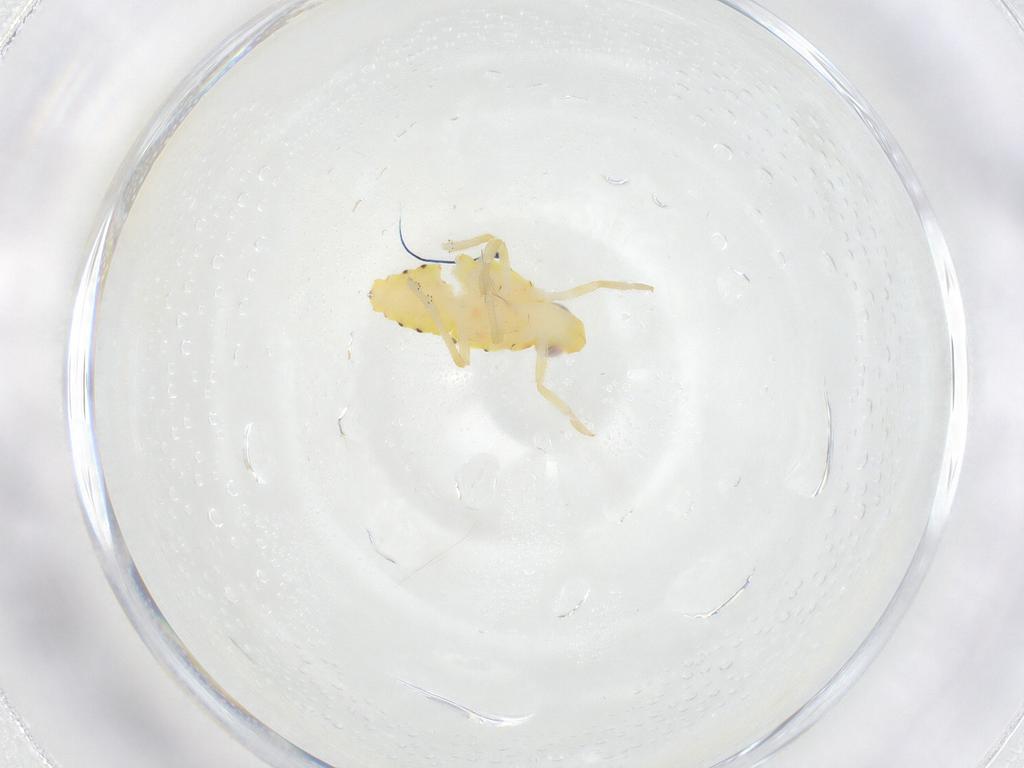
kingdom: Animalia
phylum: Arthropoda
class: Insecta
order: Hemiptera
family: Tropiduchidae
